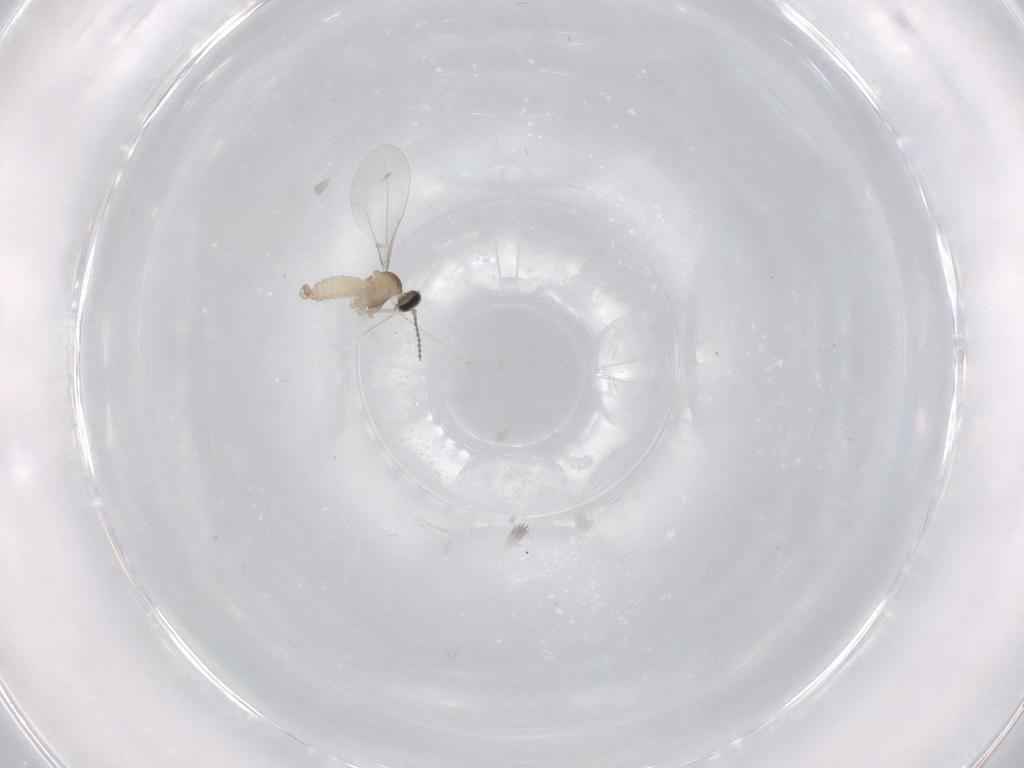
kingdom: Animalia
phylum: Arthropoda
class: Insecta
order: Diptera
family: Cecidomyiidae
